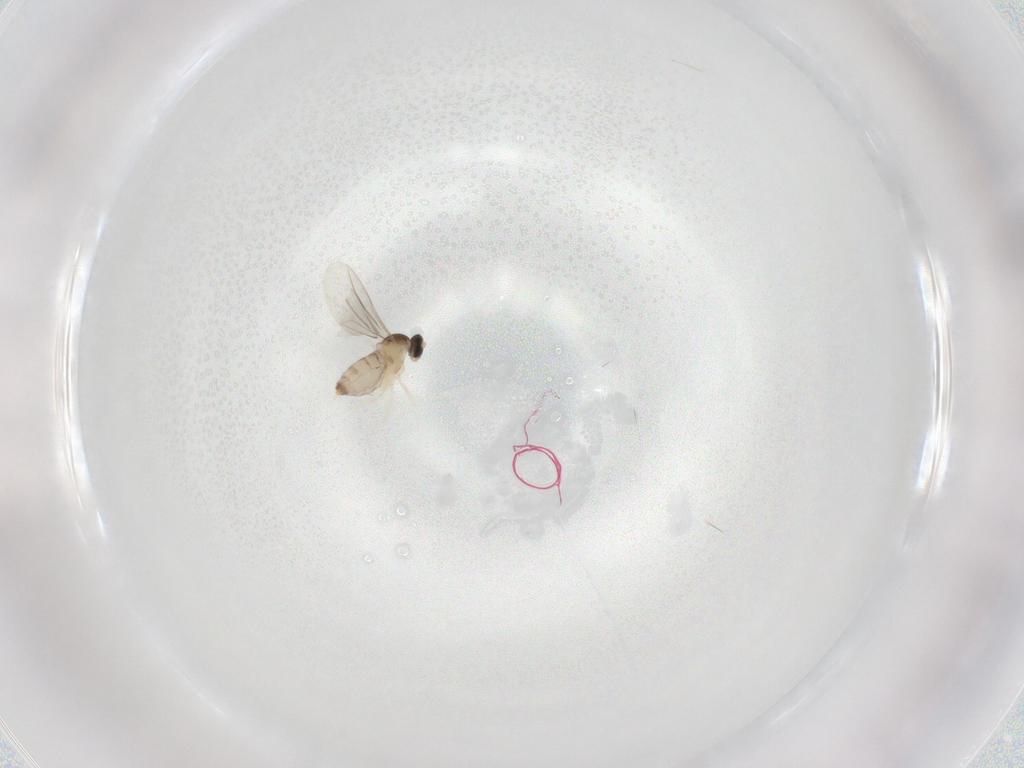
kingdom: Animalia
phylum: Arthropoda
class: Insecta
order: Diptera
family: Cecidomyiidae
